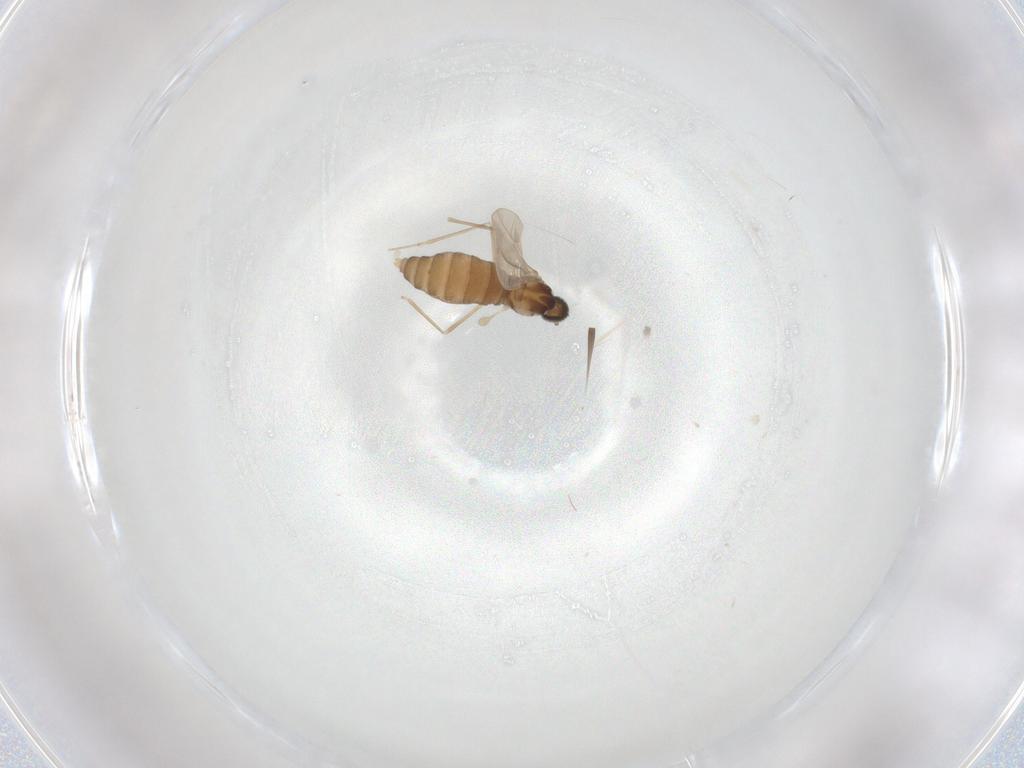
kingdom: Animalia
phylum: Arthropoda
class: Insecta
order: Diptera
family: Cecidomyiidae
